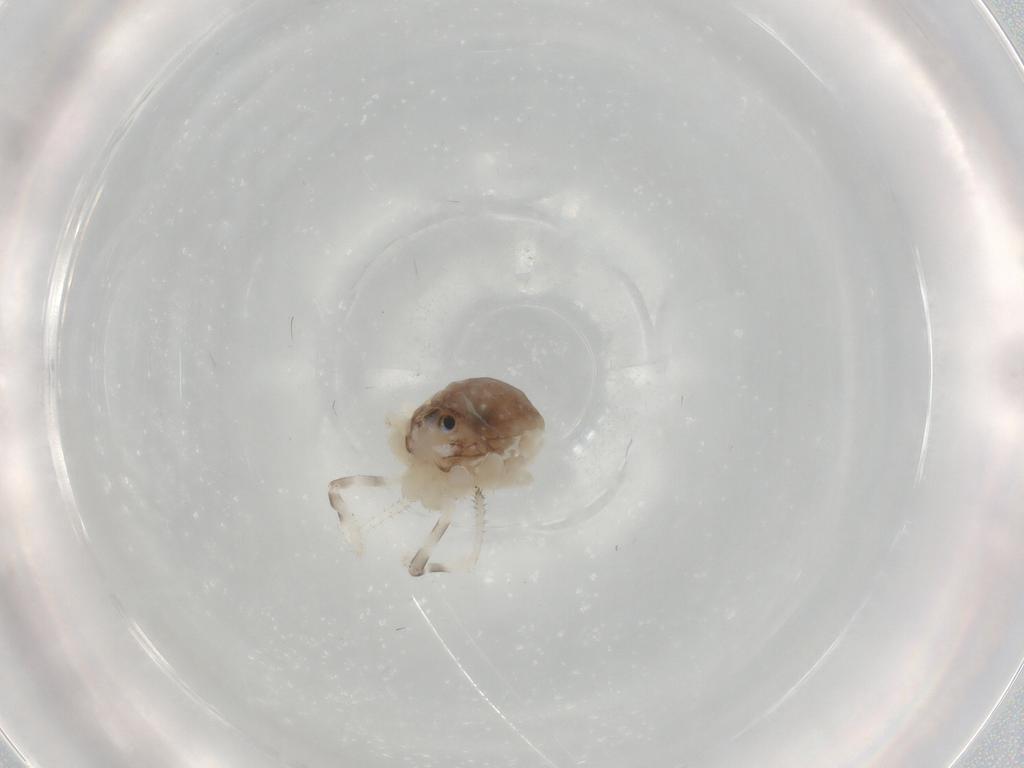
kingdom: Animalia
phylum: Arthropoda
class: Arachnida
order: Opiliones
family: Sclerosomatidae
